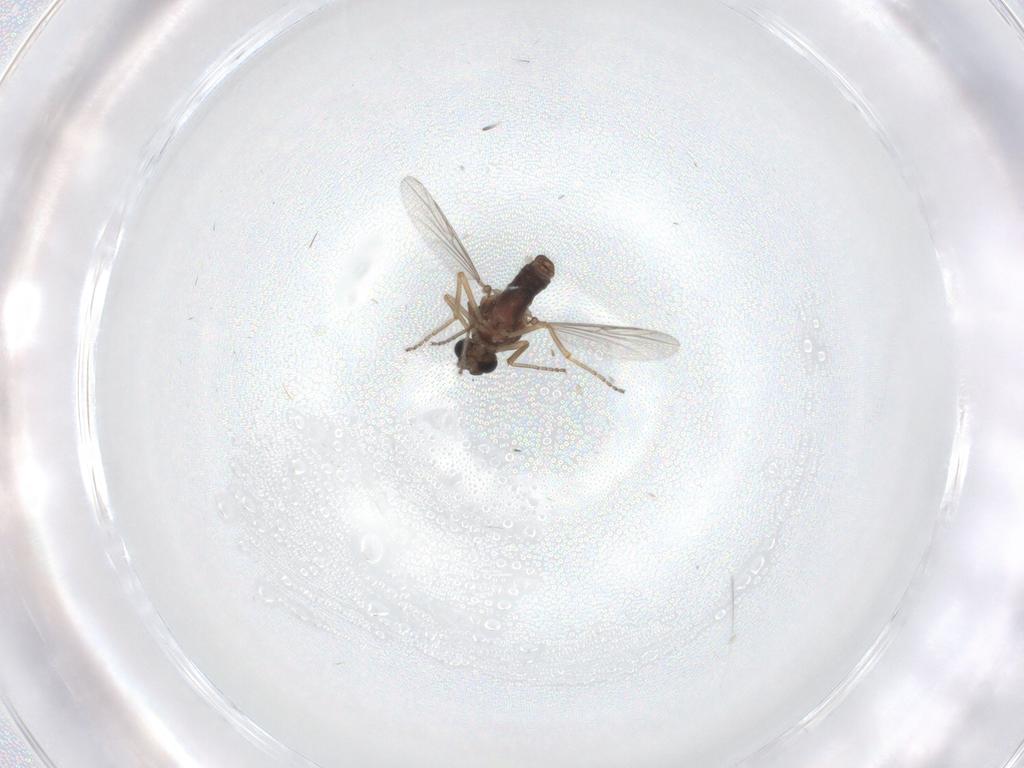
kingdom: Animalia
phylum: Arthropoda
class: Insecta
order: Diptera
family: Ceratopogonidae
